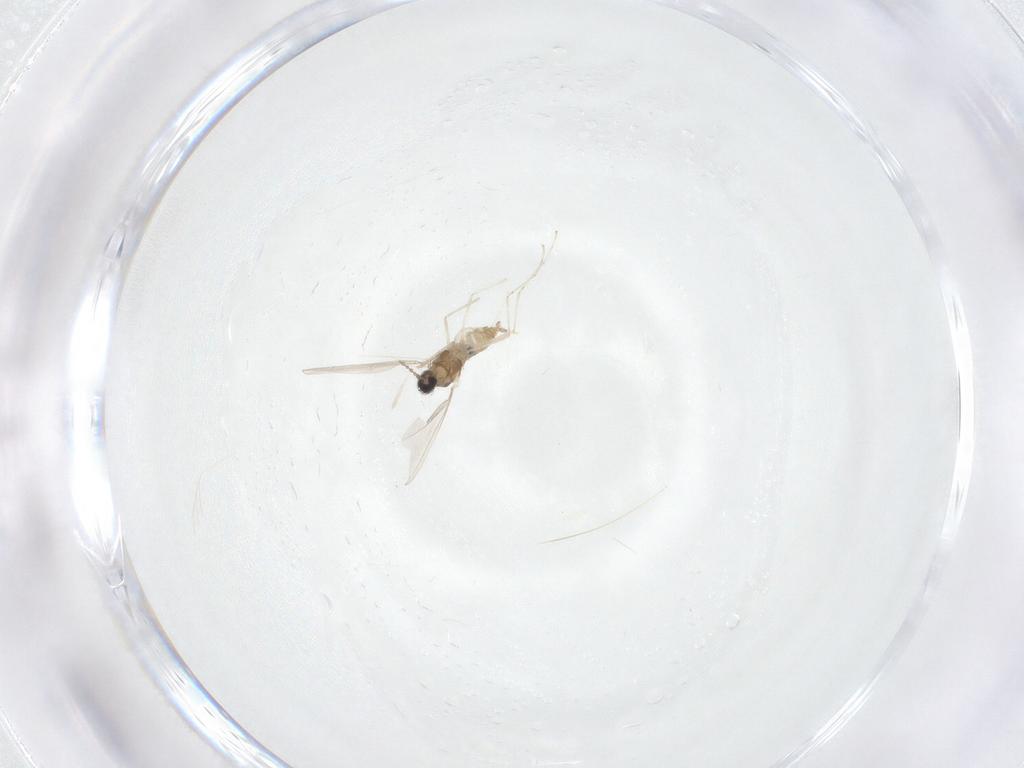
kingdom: Animalia
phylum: Arthropoda
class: Insecta
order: Diptera
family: Cecidomyiidae
